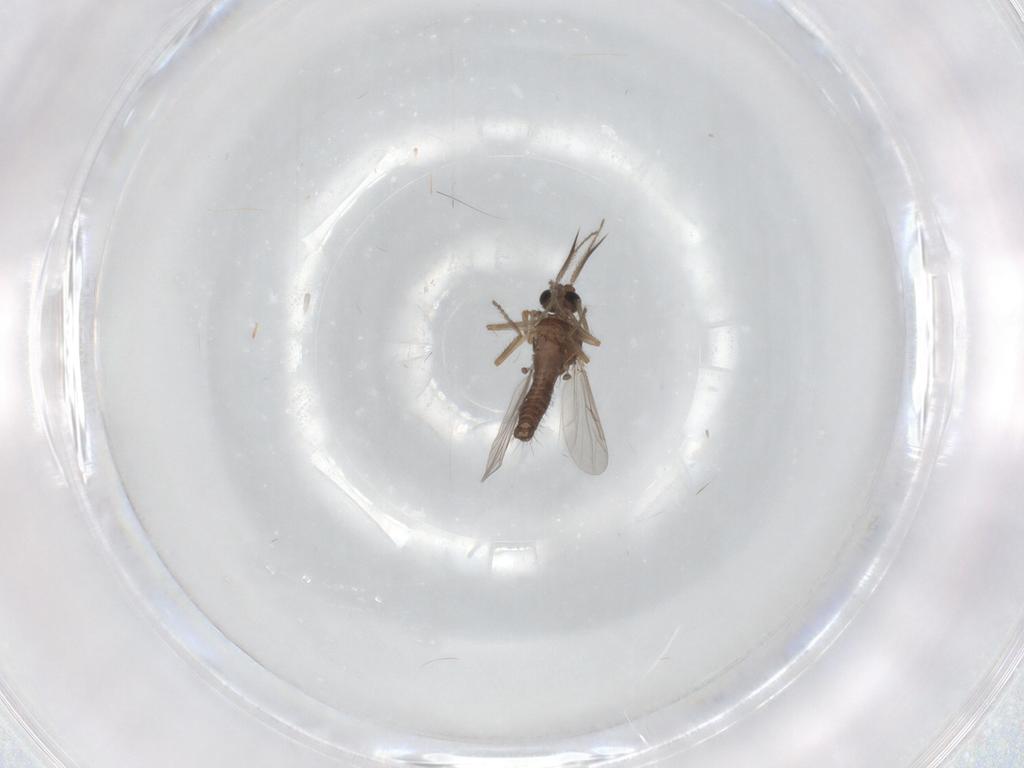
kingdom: Animalia
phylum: Arthropoda
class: Insecta
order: Diptera
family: Ceratopogonidae
